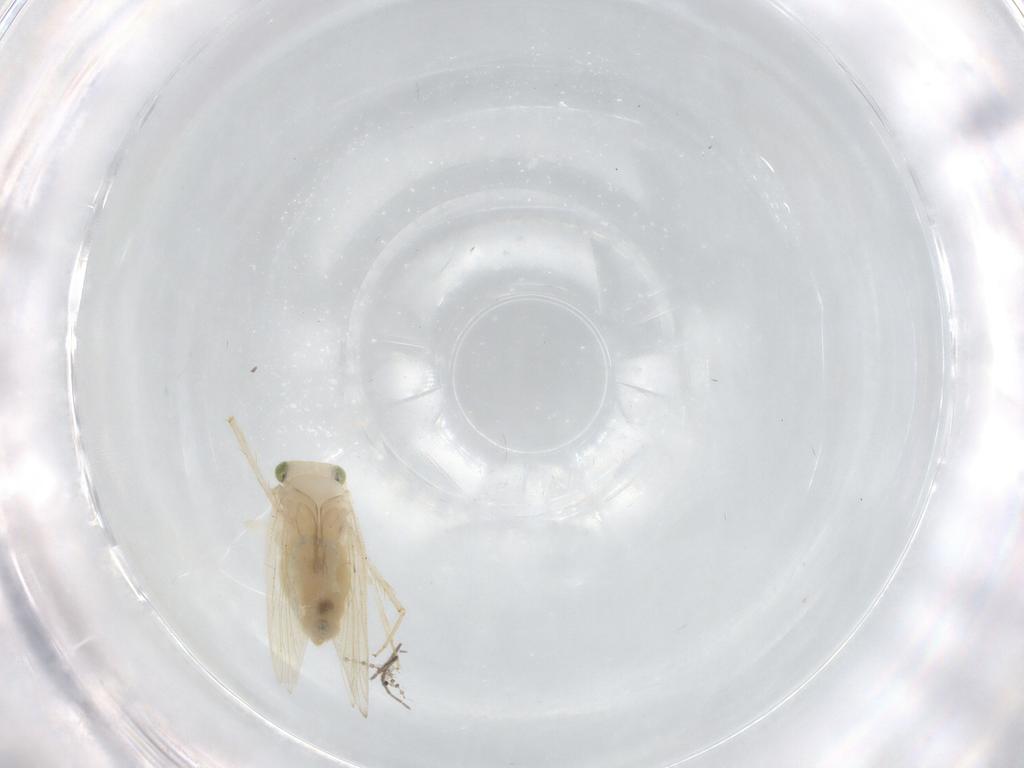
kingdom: Animalia
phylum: Arthropoda
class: Insecta
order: Psocodea
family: Lepidopsocidae
